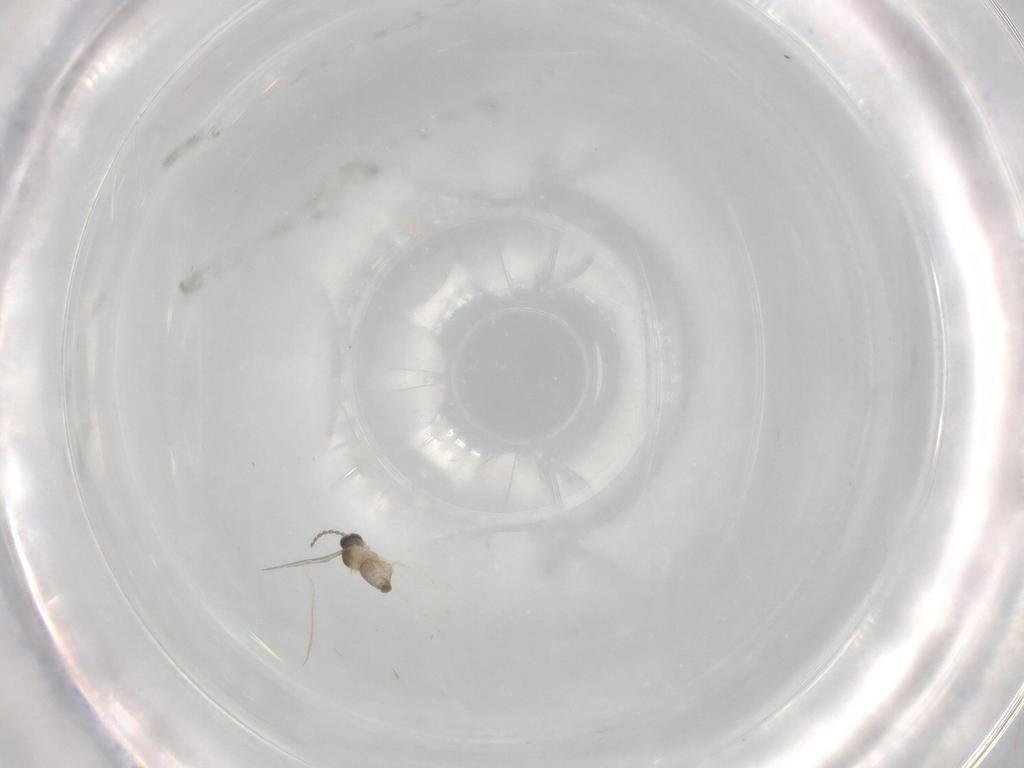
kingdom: Animalia
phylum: Arthropoda
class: Insecta
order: Diptera
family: Cecidomyiidae
